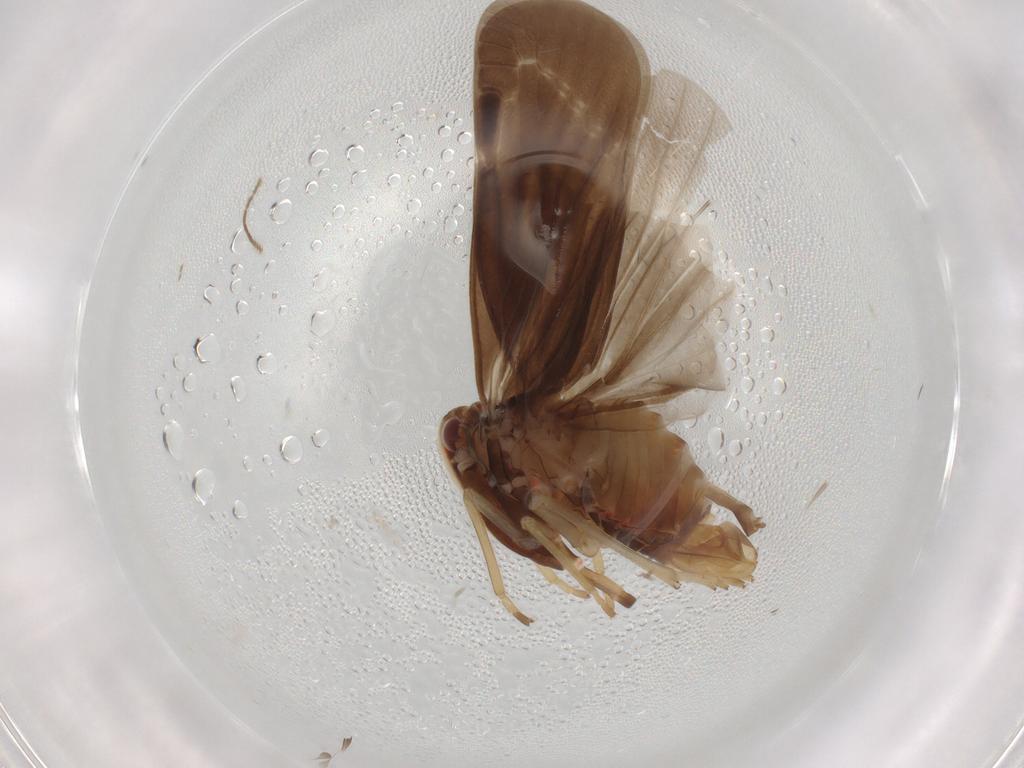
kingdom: Animalia
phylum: Arthropoda
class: Insecta
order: Hemiptera
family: Derbidae
